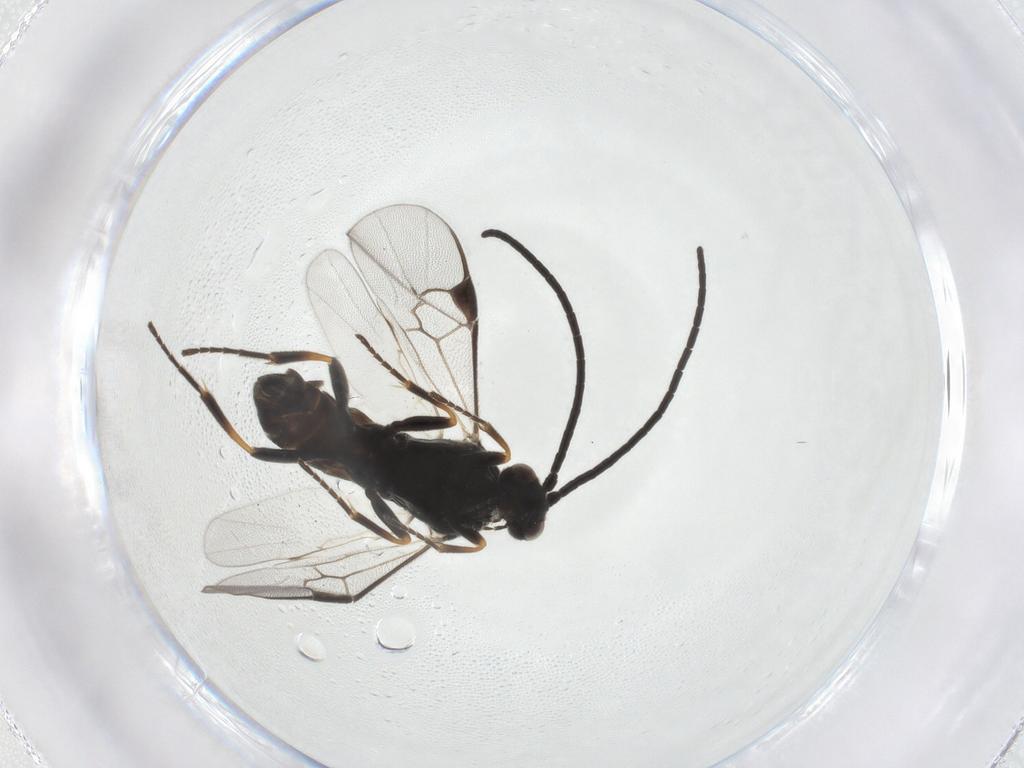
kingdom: Animalia
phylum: Arthropoda
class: Insecta
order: Hymenoptera
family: Braconidae
